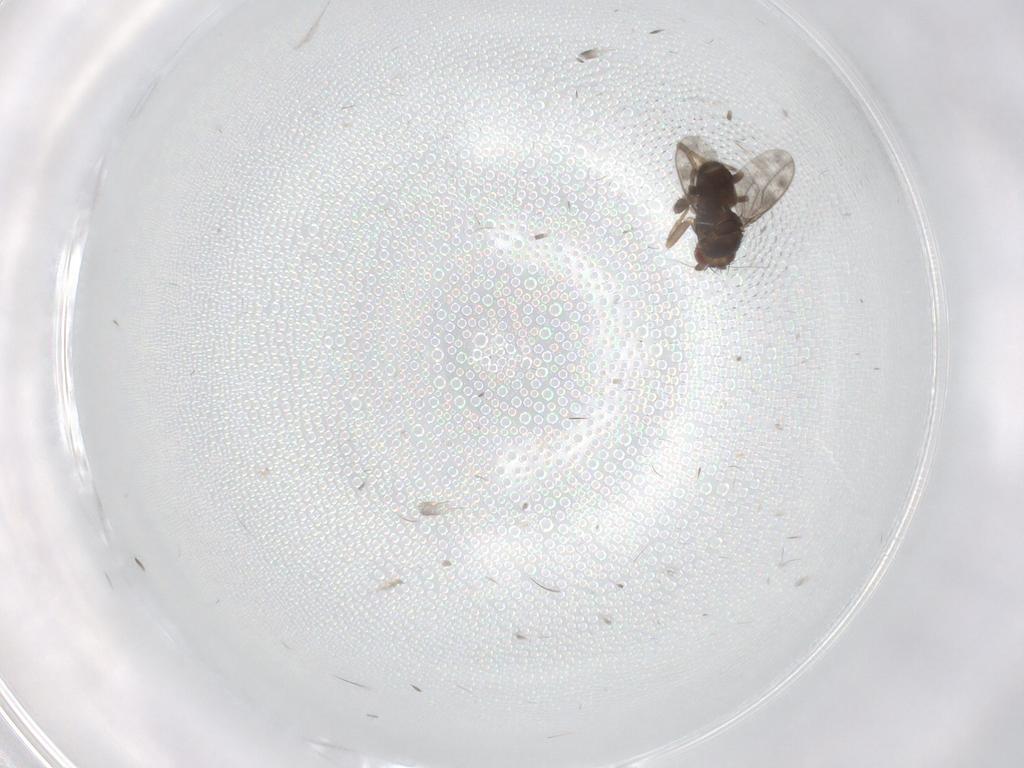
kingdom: Animalia
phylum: Arthropoda
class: Insecta
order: Diptera
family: Sphaeroceridae
